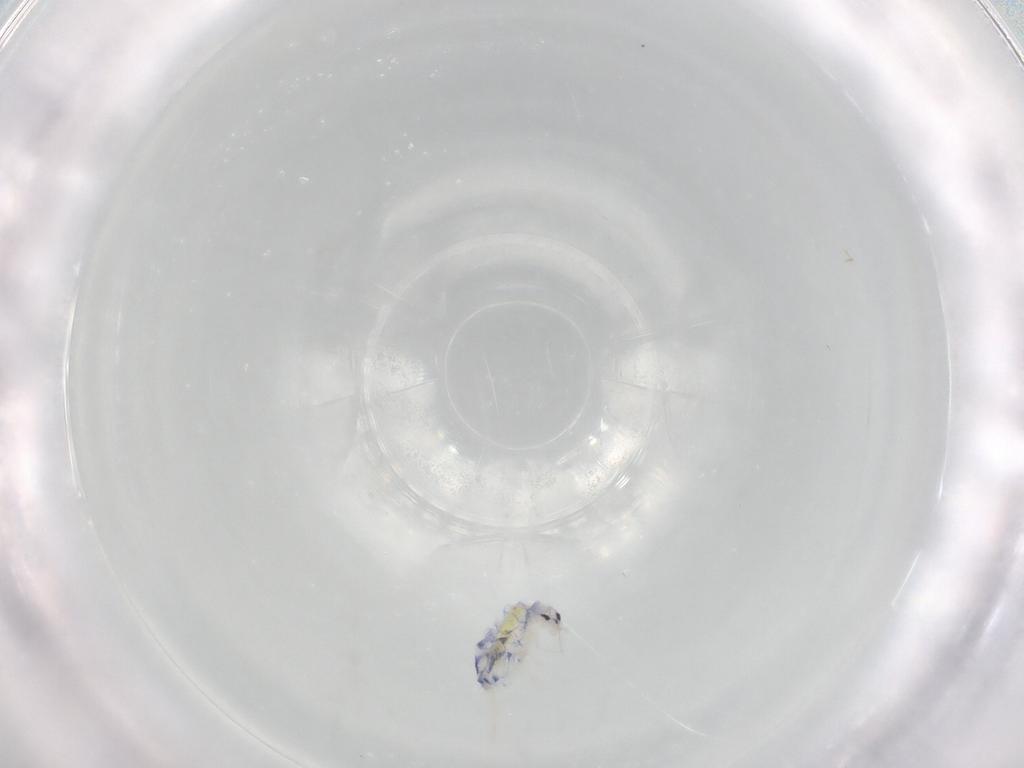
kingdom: Animalia
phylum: Arthropoda
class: Collembola
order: Entomobryomorpha
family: Entomobryidae
